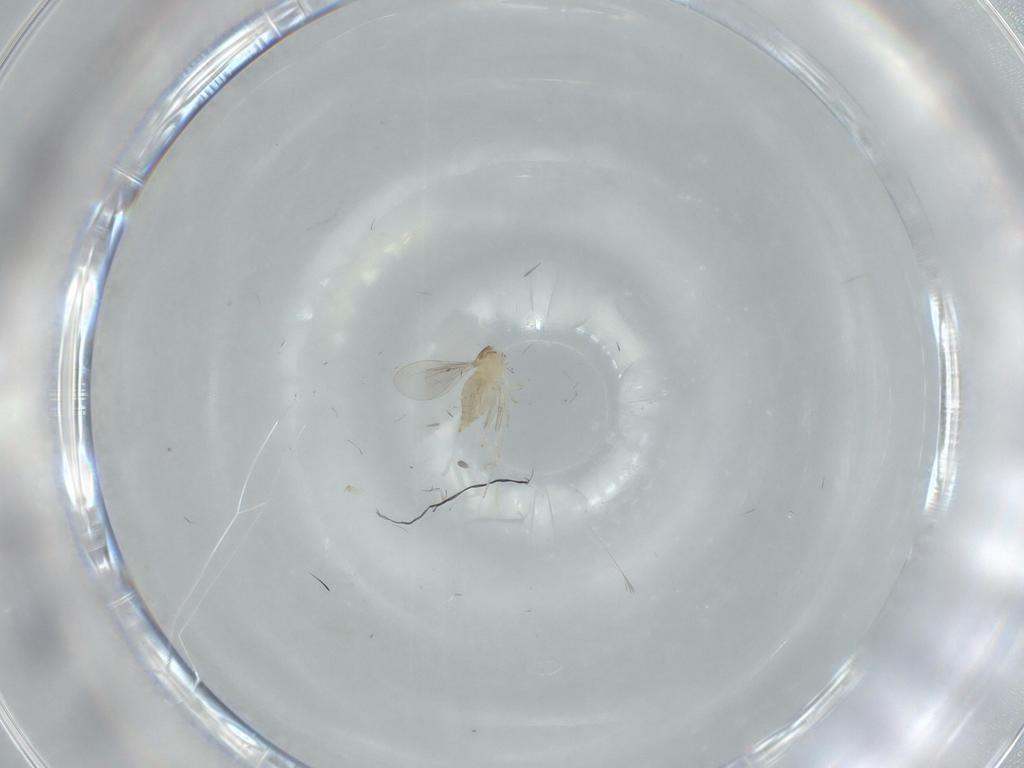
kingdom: Animalia
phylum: Arthropoda
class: Insecta
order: Diptera
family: Cecidomyiidae
